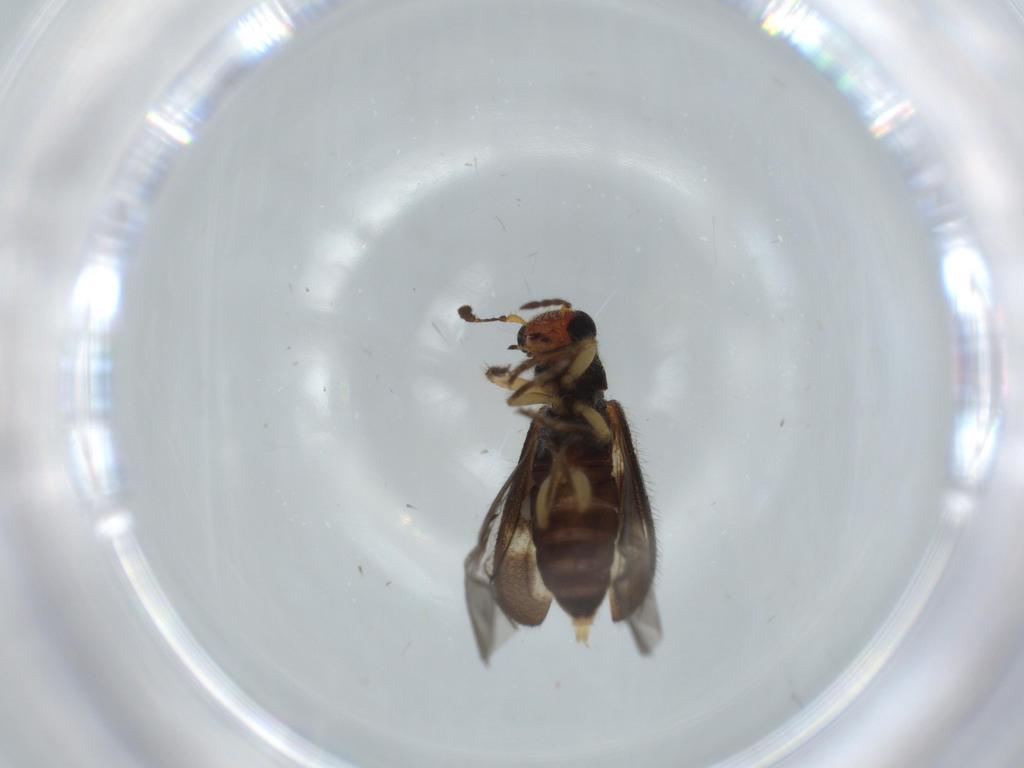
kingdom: Animalia
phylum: Arthropoda
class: Insecta
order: Coleoptera
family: Cleridae
